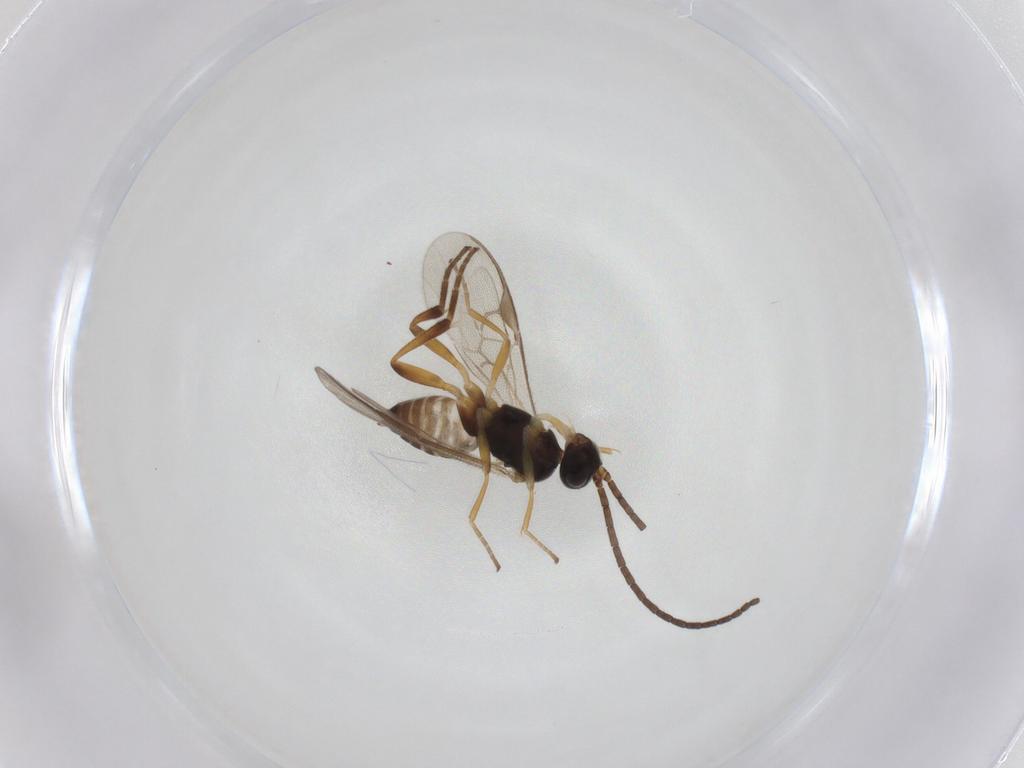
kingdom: Animalia
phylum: Arthropoda
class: Insecta
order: Hymenoptera
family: Braconidae
